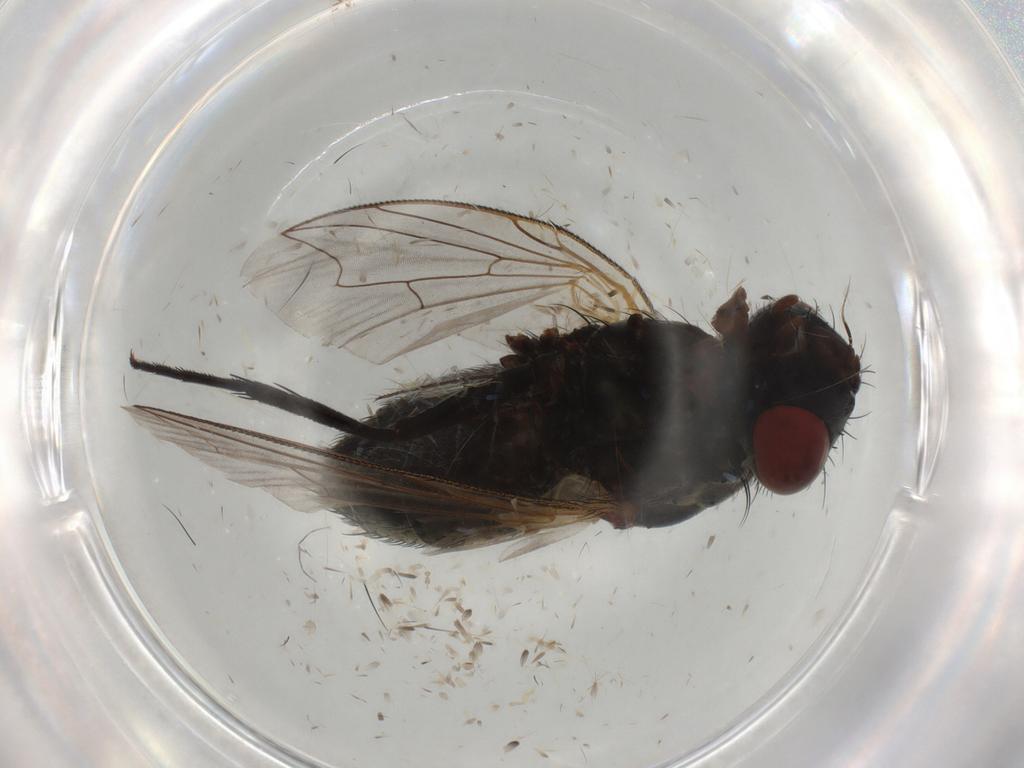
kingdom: Animalia
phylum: Arthropoda
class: Insecta
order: Diptera
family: Sarcophagidae
